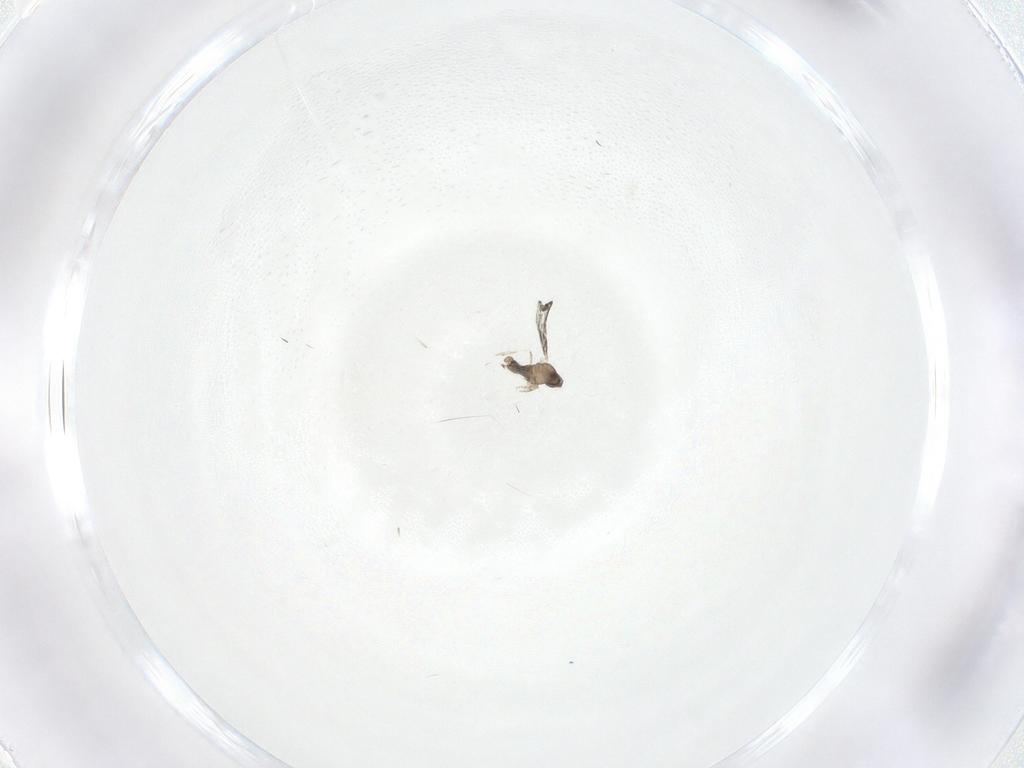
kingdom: Animalia
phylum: Arthropoda
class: Insecta
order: Diptera
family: Cecidomyiidae
